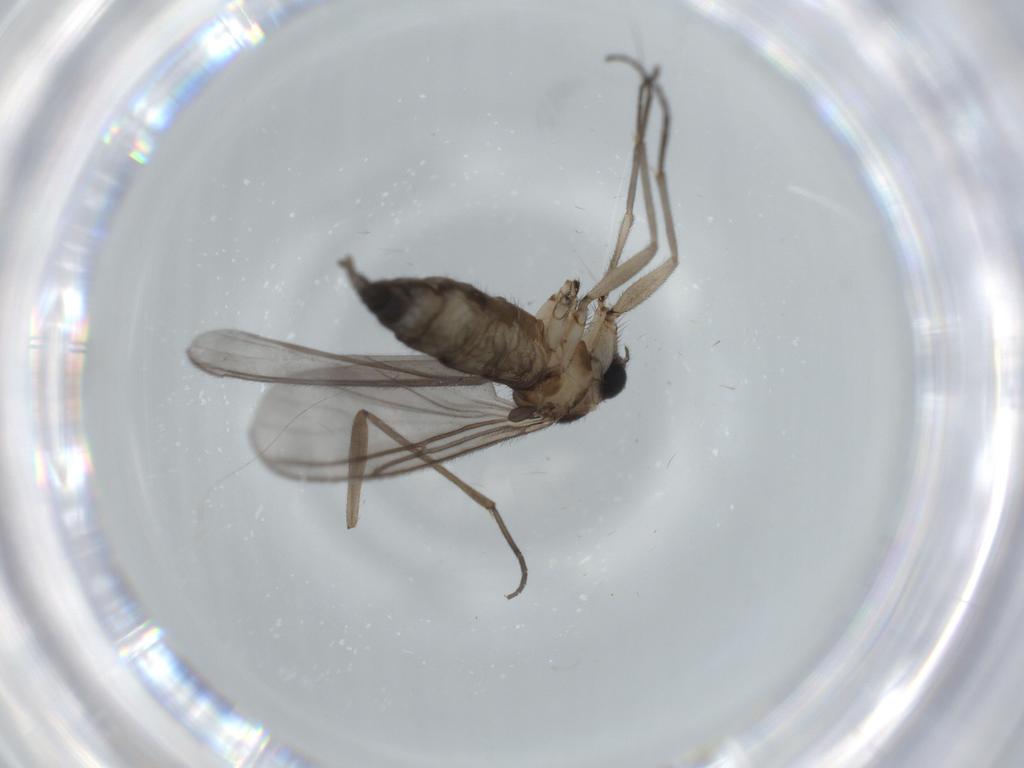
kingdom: Animalia
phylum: Arthropoda
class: Insecta
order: Diptera
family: Sciaridae
